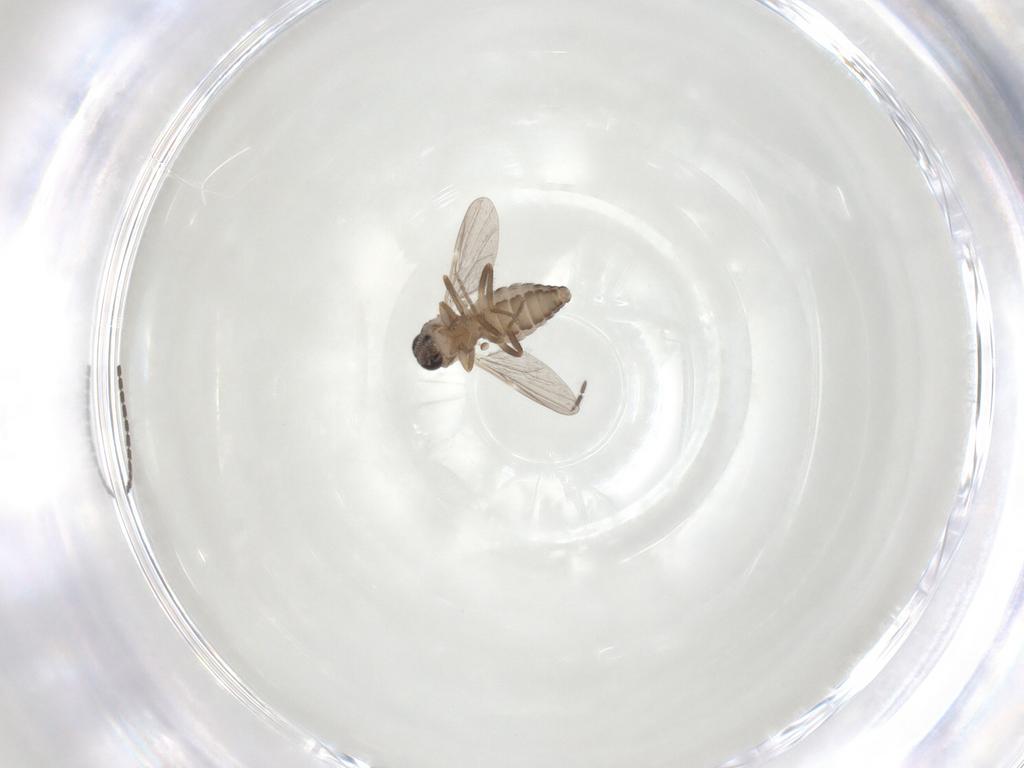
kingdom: Animalia
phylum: Arthropoda
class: Insecta
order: Diptera
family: Ceratopogonidae
